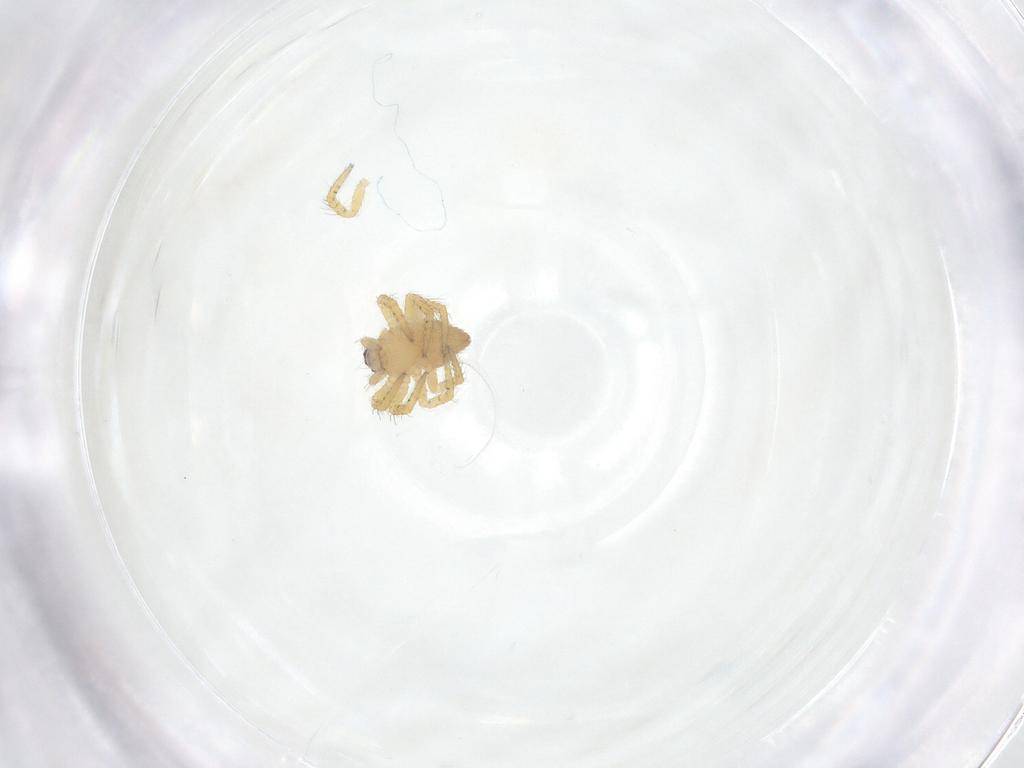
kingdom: Animalia
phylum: Arthropoda
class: Arachnida
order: Araneae
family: Theridiidae
